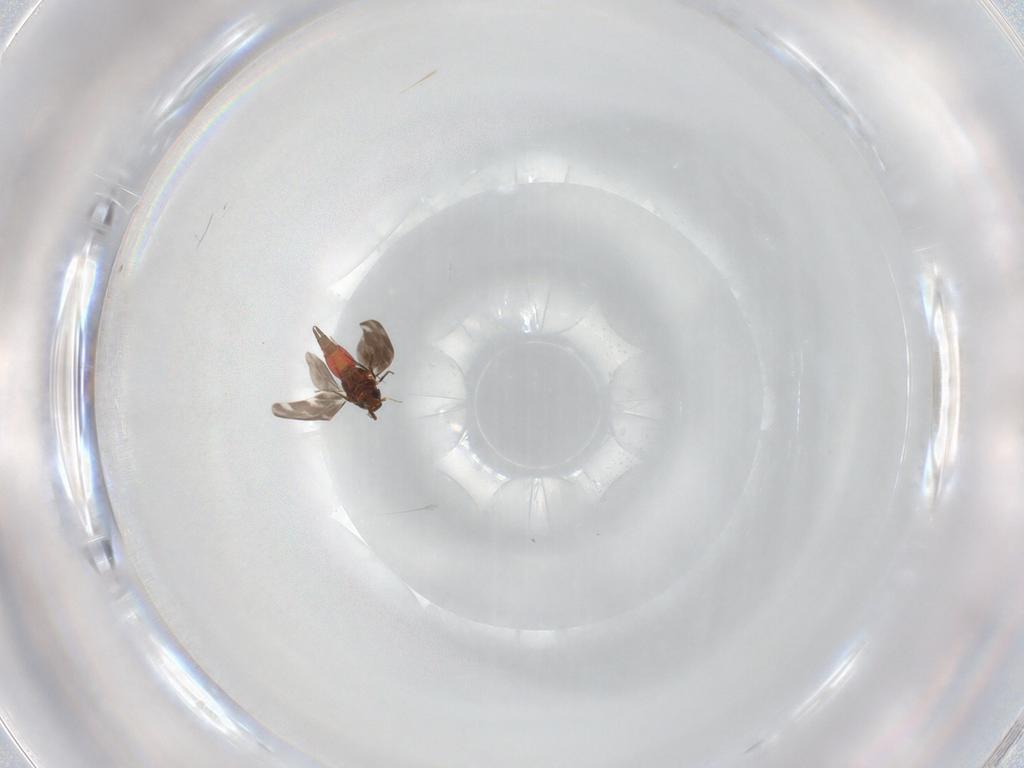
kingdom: Animalia
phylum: Arthropoda
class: Insecta
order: Hemiptera
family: Aleyrodidae
